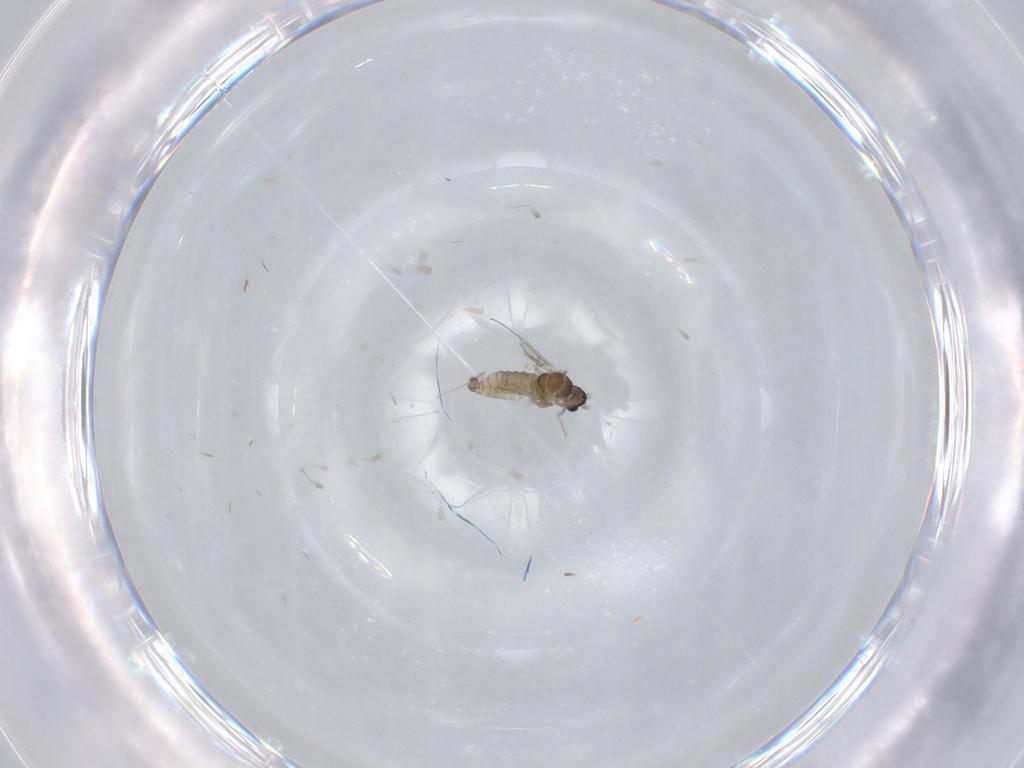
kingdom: Animalia
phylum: Arthropoda
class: Insecta
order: Diptera
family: Cecidomyiidae
